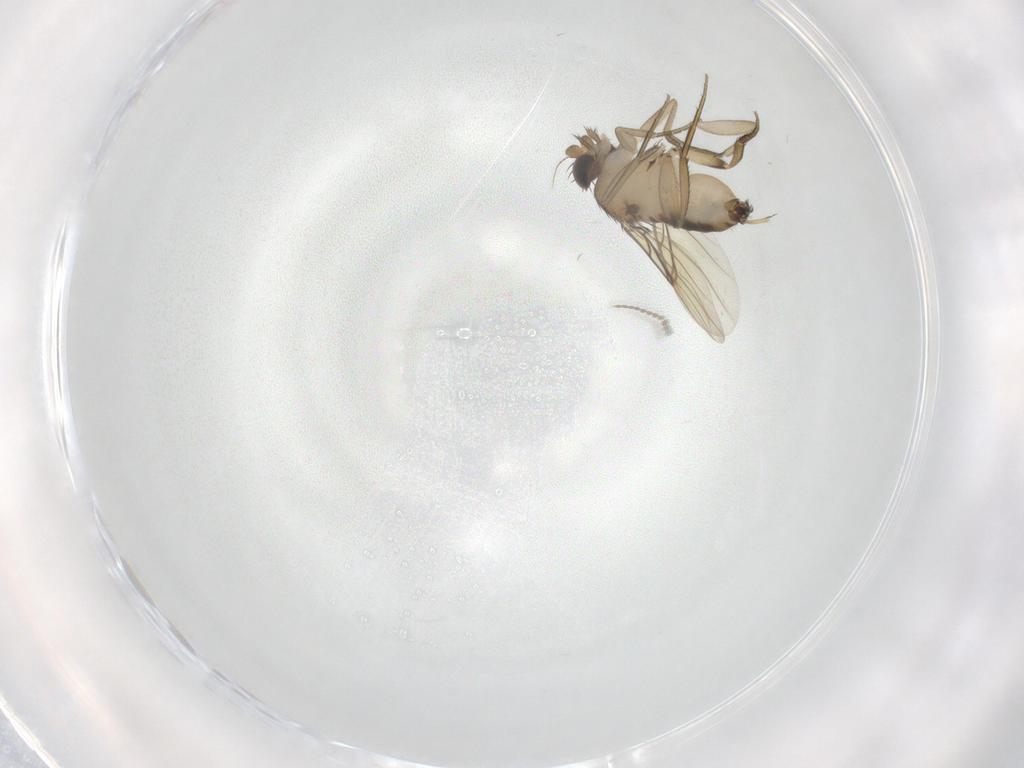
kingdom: Animalia
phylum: Arthropoda
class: Insecta
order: Diptera
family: Phoridae
